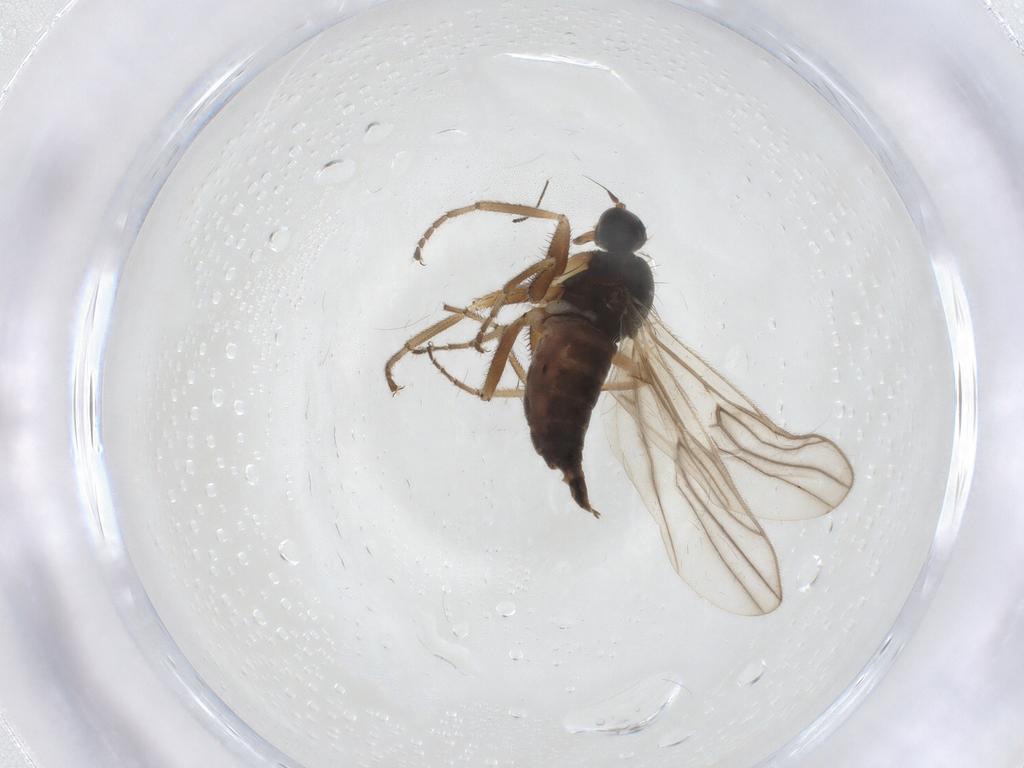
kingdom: Animalia
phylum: Arthropoda
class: Insecta
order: Diptera
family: Hybotidae
